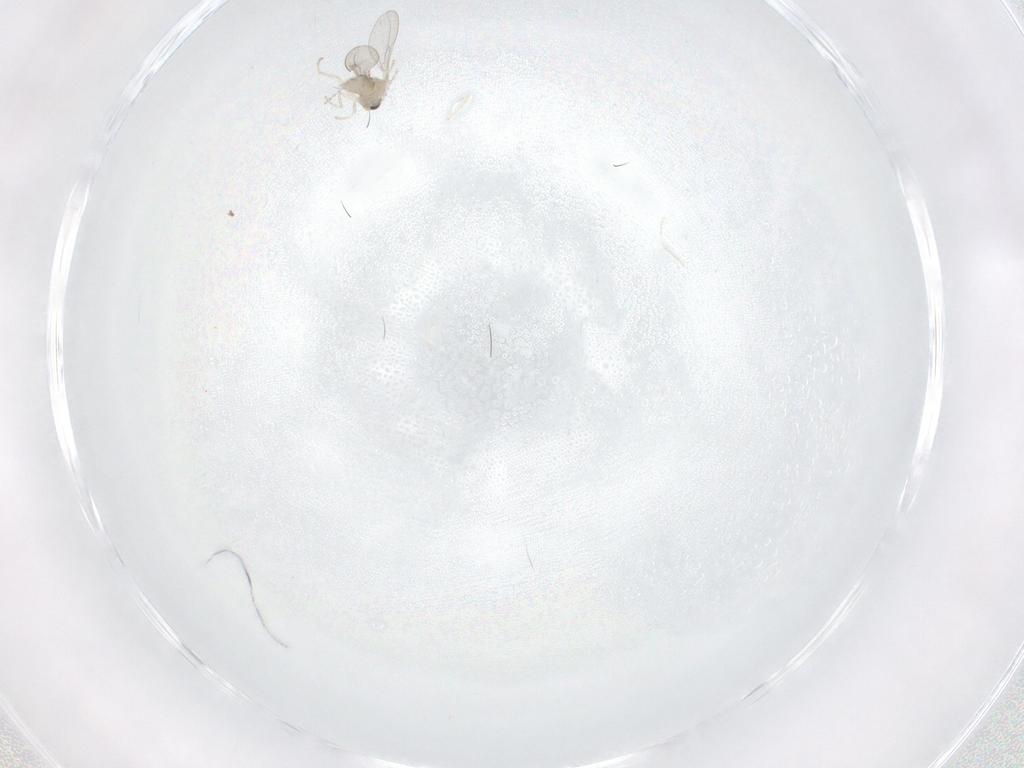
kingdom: Animalia
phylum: Arthropoda
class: Insecta
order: Diptera
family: Cecidomyiidae
